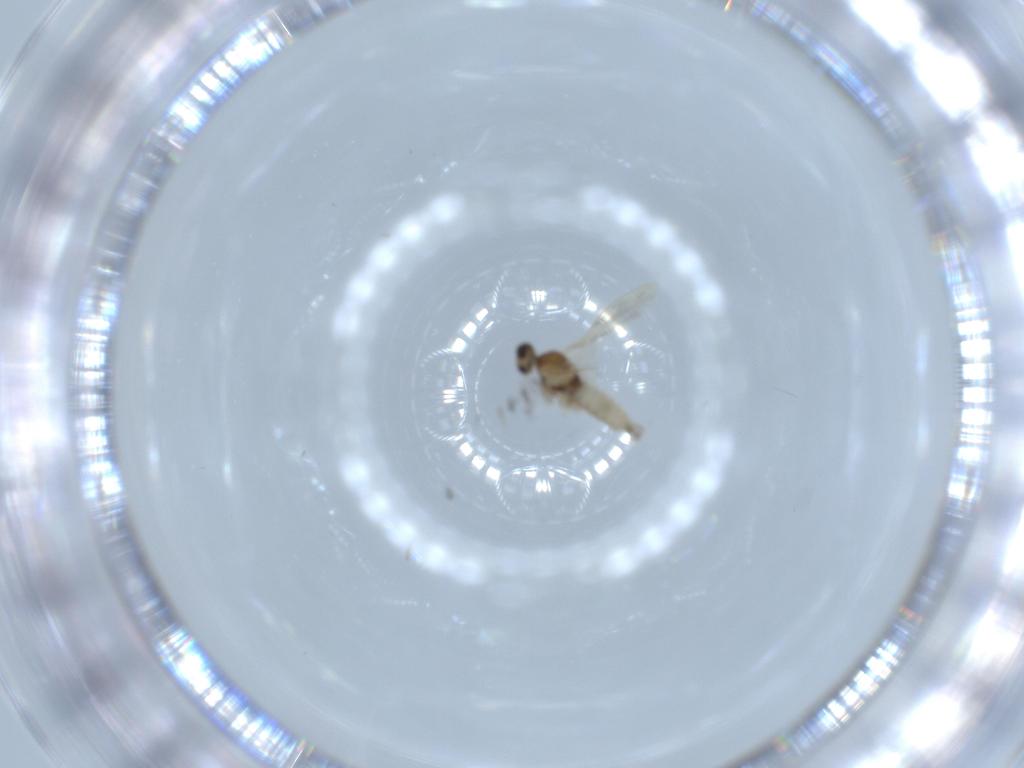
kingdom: Animalia
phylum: Arthropoda
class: Insecta
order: Diptera
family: Cecidomyiidae
